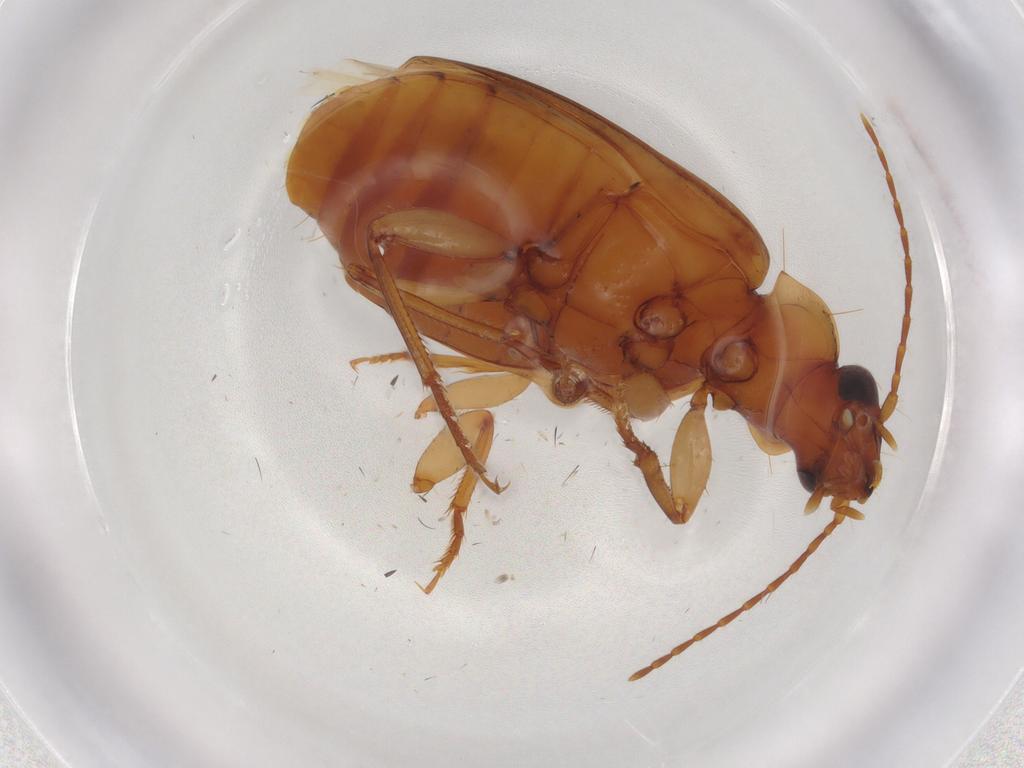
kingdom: Animalia
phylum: Arthropoda
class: Insecta
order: Coleoptera
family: Carabidae
